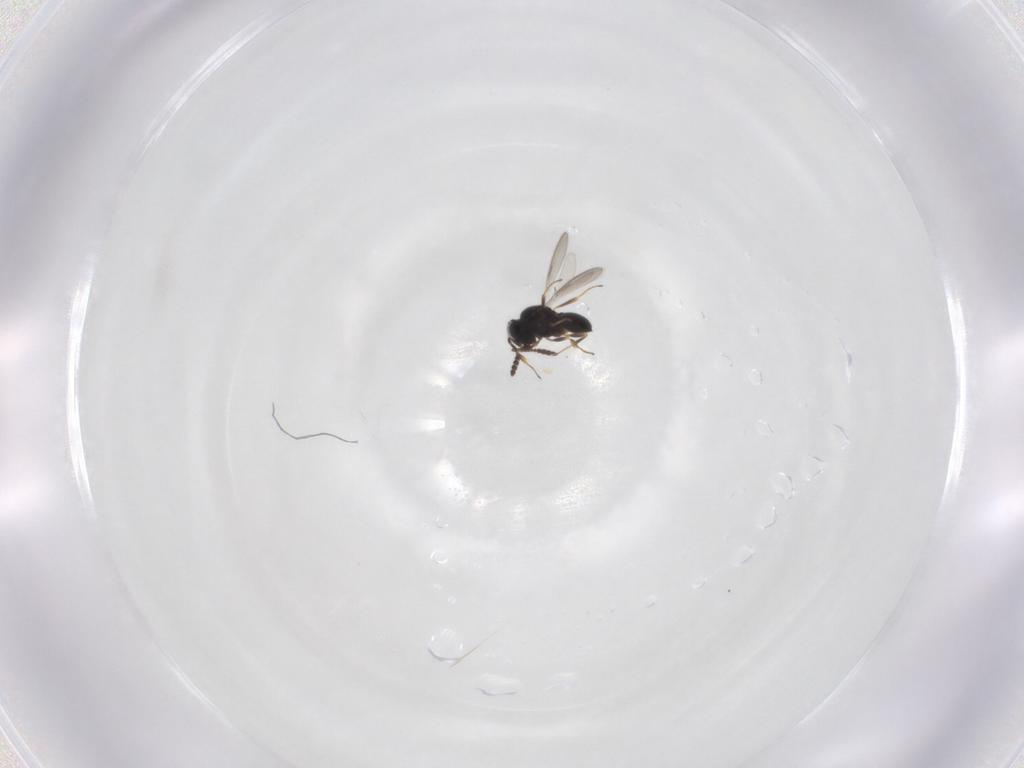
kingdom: Animalia
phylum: Arthropoda
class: Insecta
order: Hymenoptera
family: Scelionidae
